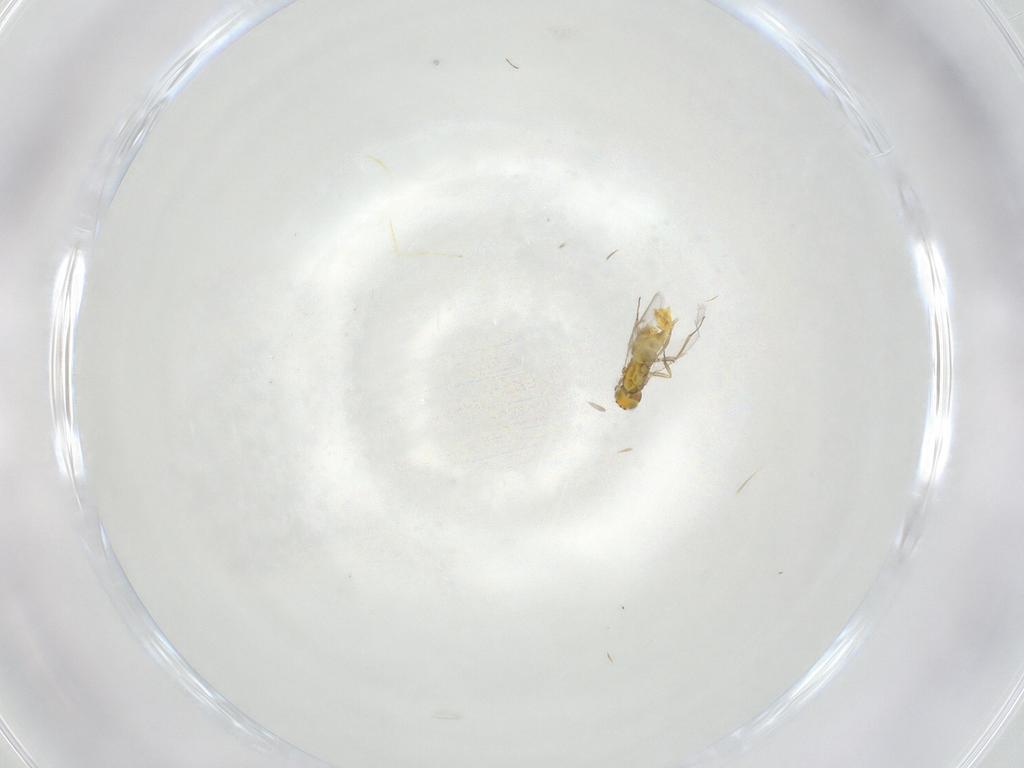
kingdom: Animalia
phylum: Arthropoda
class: Insecta
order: Hymenoptera
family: Aphelinidae
